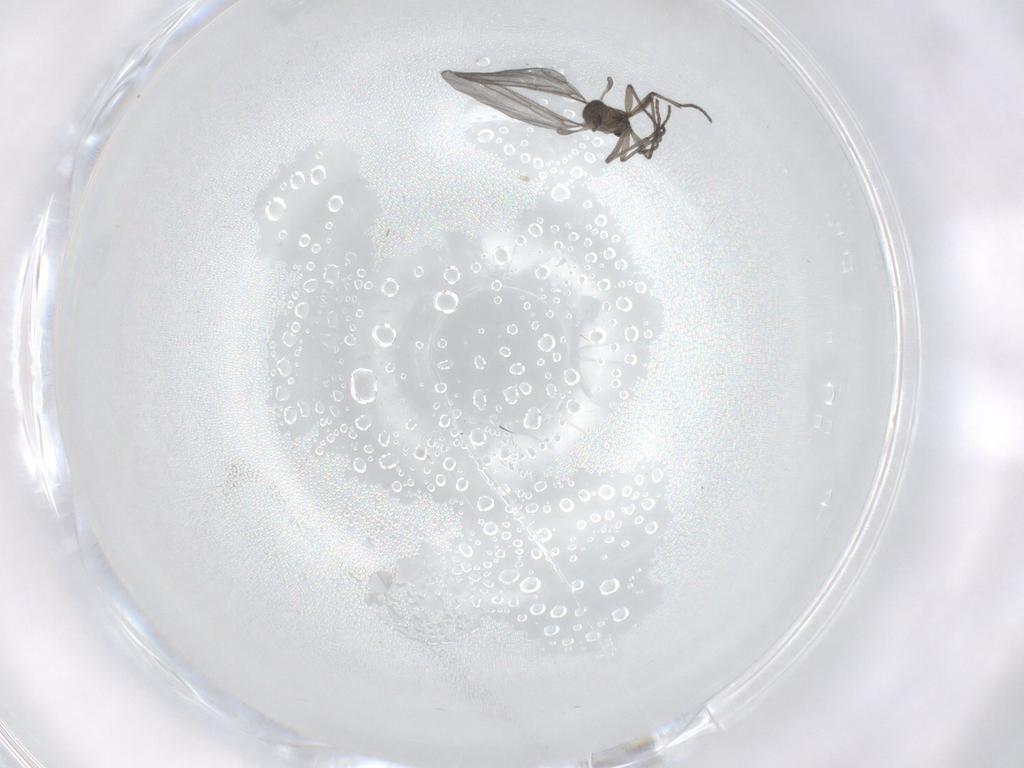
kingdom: Animalia
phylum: Arthropoda
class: Insecta
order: Diptera
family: Sciaridae
